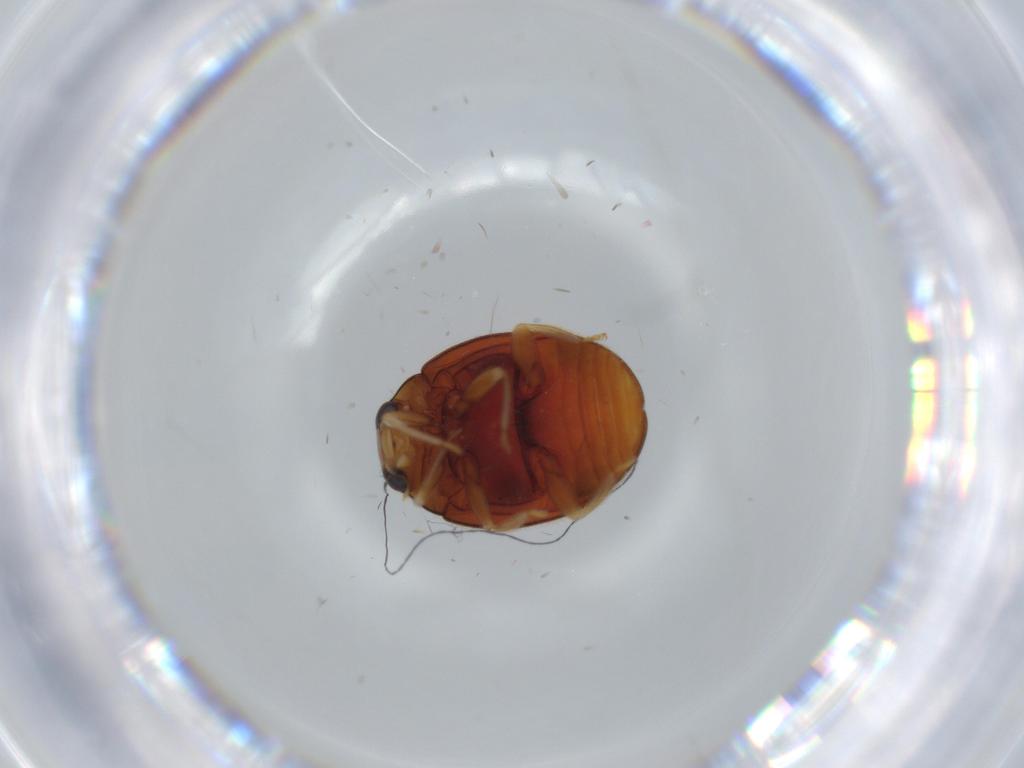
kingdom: Animalia
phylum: Arthropoda
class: Insecta
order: Coleoptera
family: Coccinellidae
